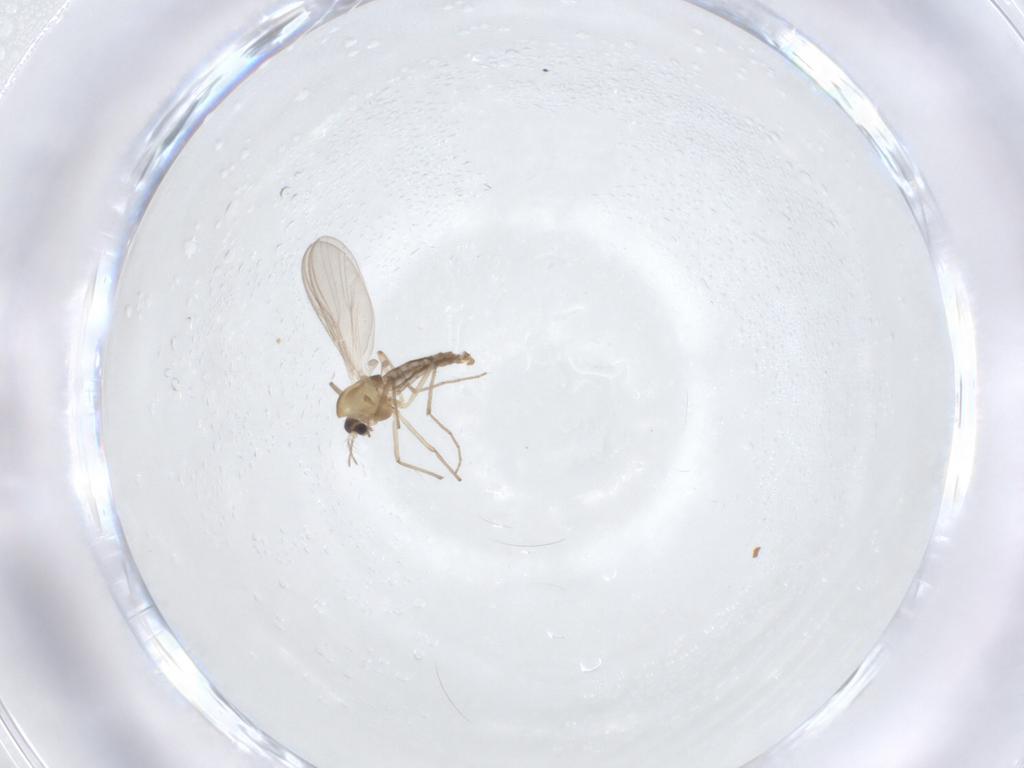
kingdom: Animalia
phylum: Arthropoda
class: Insecta
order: Diptera
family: Chironomidae
